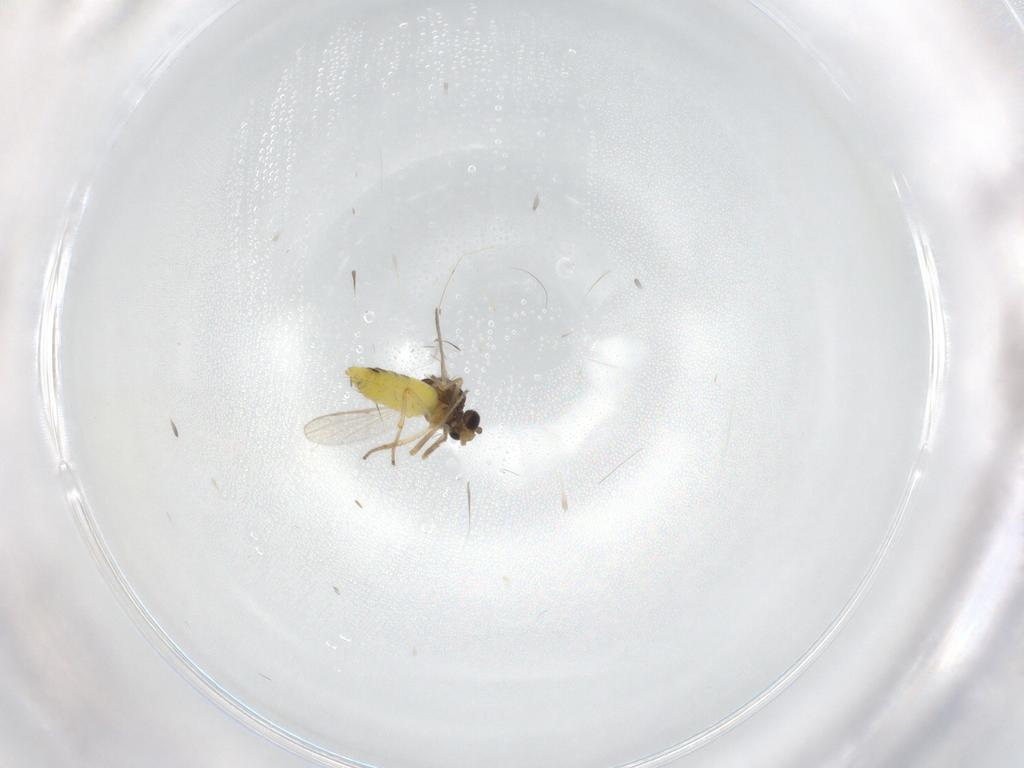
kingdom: Animalia
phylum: Arthropoda
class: Insecta
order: Diptera
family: Ceratopogonidae
